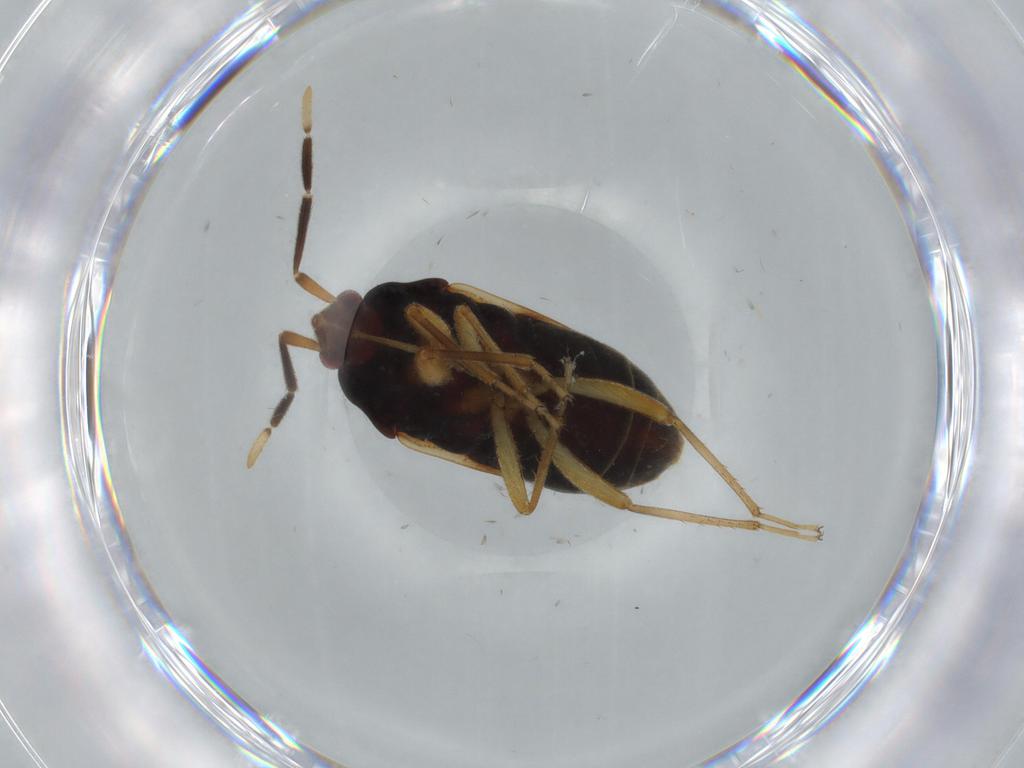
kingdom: Animalia
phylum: Arthropoda
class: Insecta
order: Hemiptera
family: Rhyparochromidae
